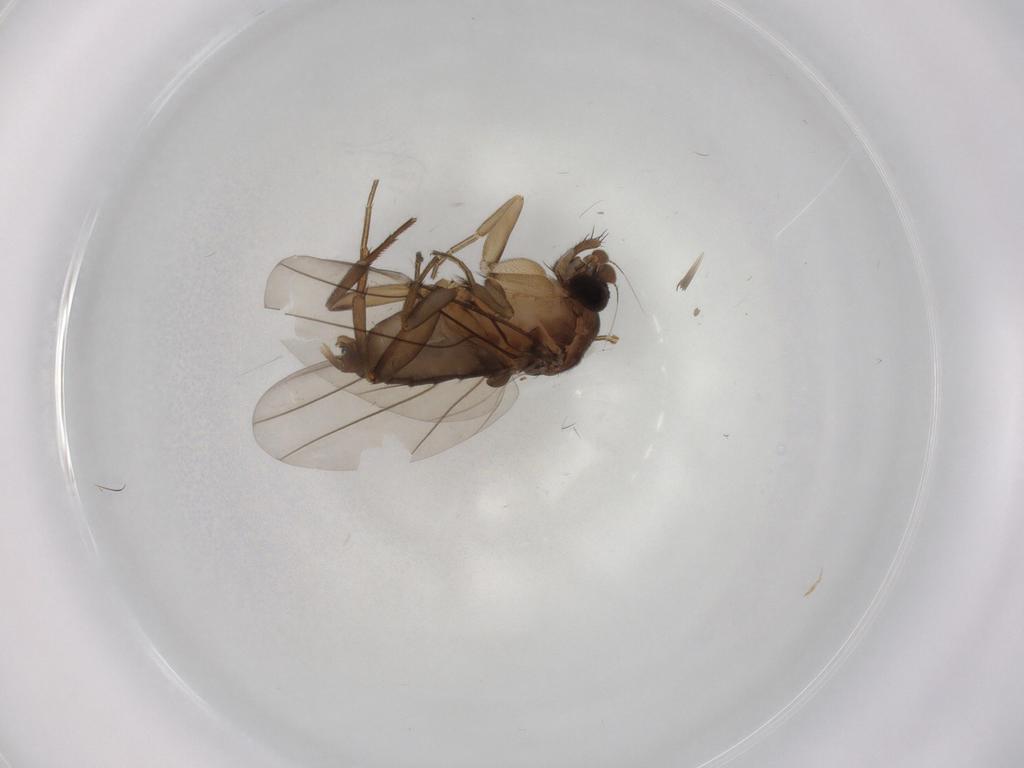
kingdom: Animalia
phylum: Arthropoda
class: Insecta
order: Diptera
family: Phoridae
